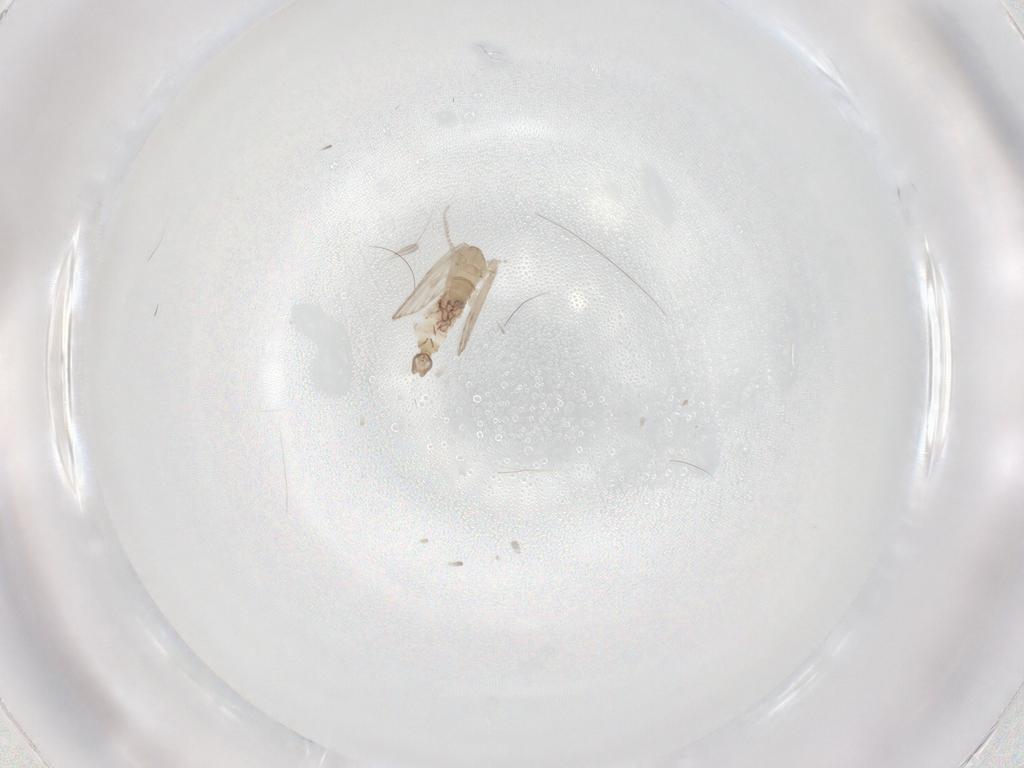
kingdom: Animalia
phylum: Arthropoda
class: Insecta
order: Diptera
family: Psychodidae
